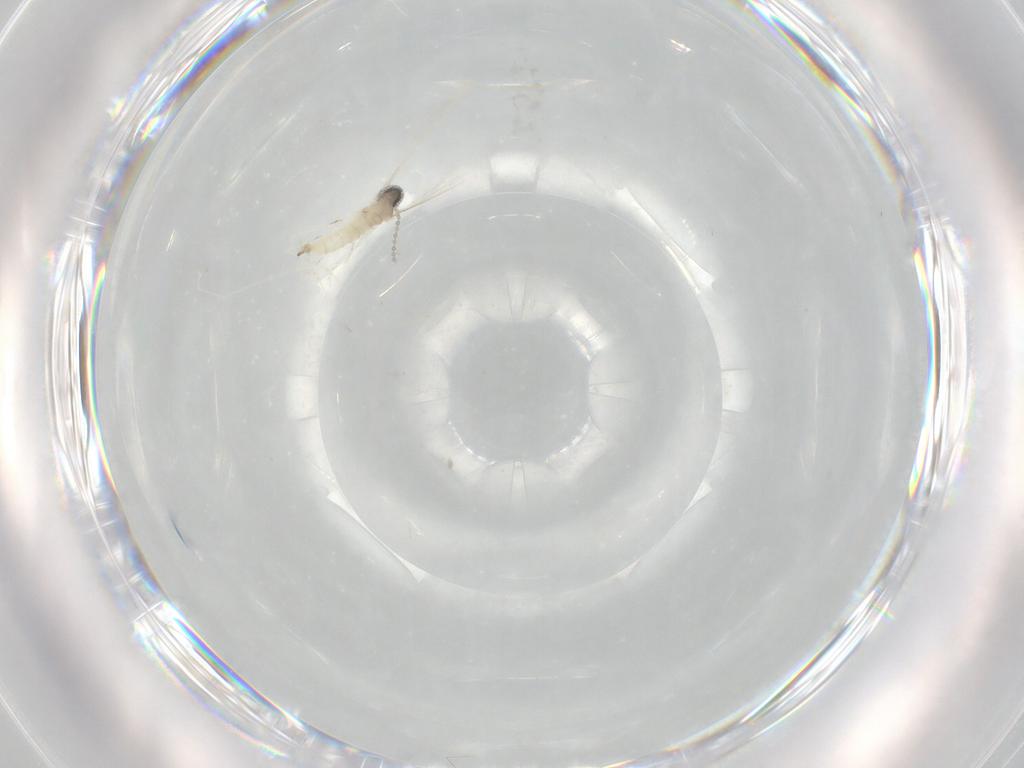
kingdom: Animalia
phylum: Arthropoda
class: Insecta
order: Diptera
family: Cecidomyiidae
